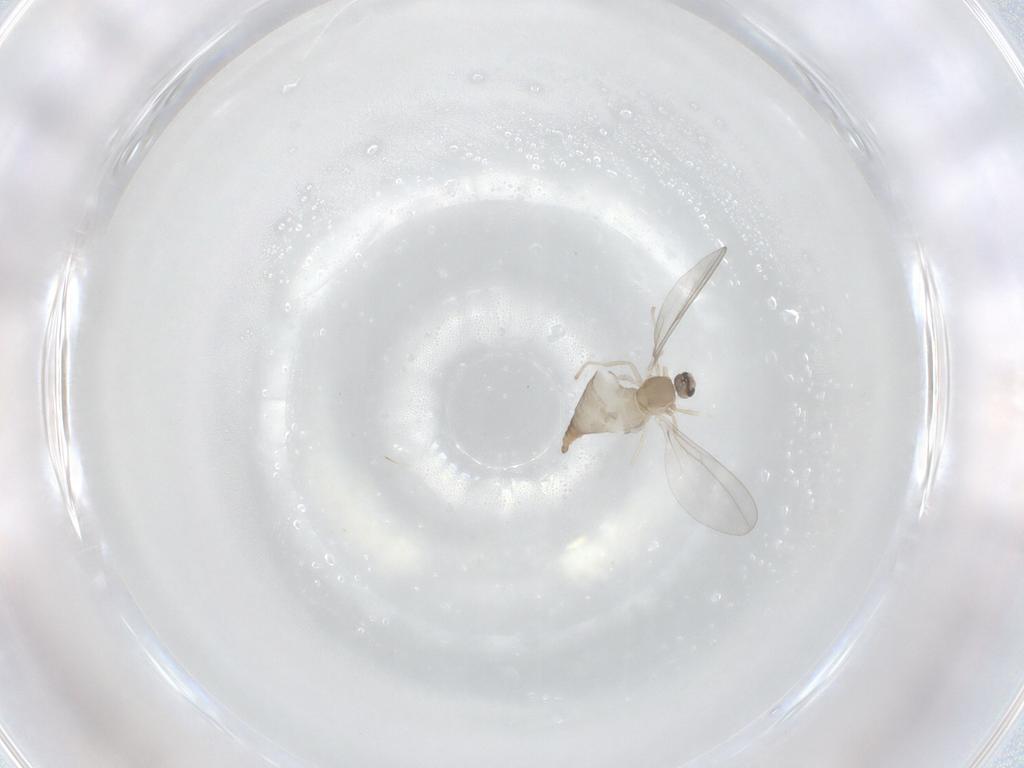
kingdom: Animalia
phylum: Arthropoda
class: Insecta
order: Diptera
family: Cecidomyiidae
